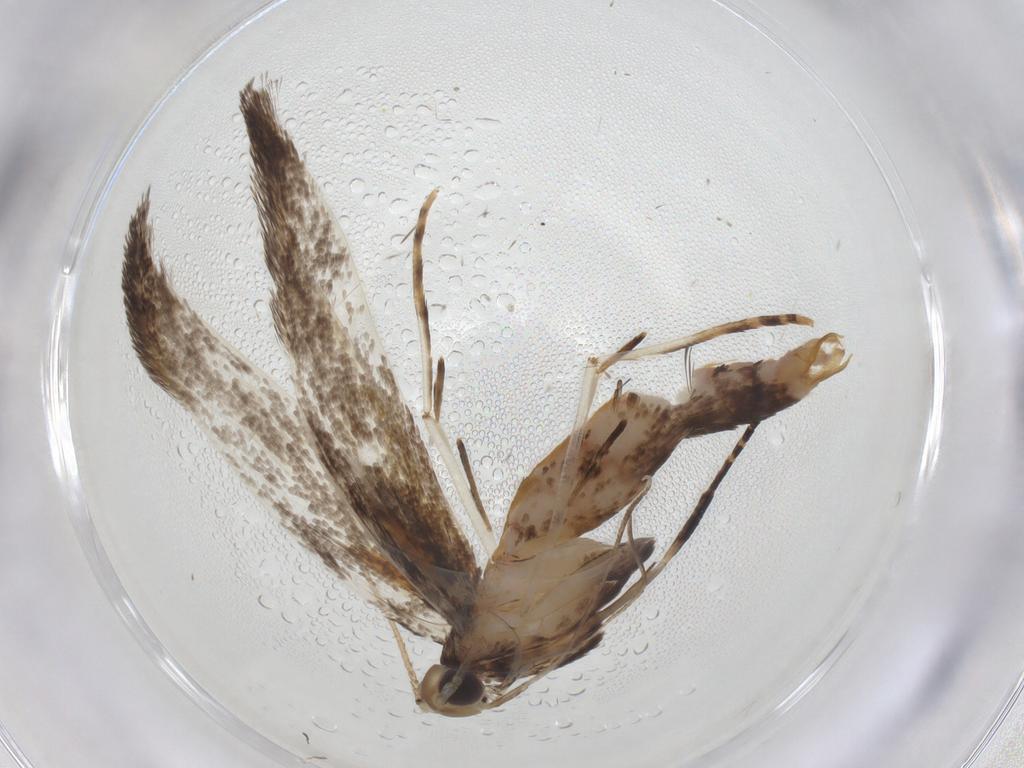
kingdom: Animalia
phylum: Arthropoda
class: Insecta
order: Lepidoptera
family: Erebidae
